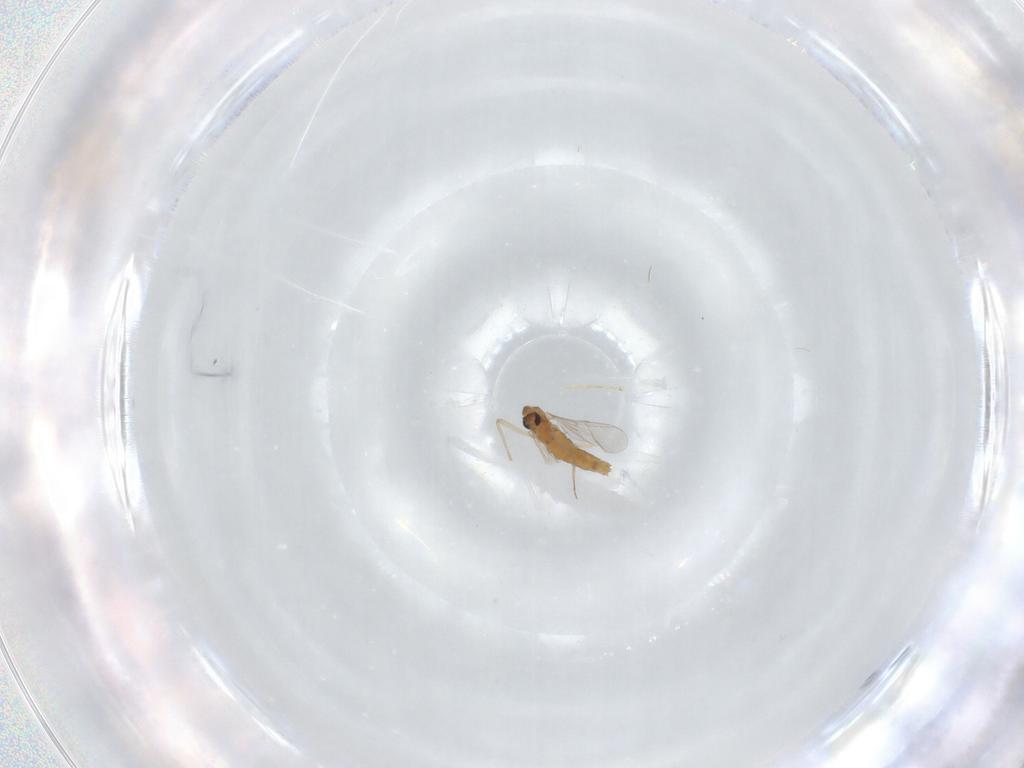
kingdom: Animalia
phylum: Arthropoda
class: Insecta
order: Diptera
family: Chironomidae
